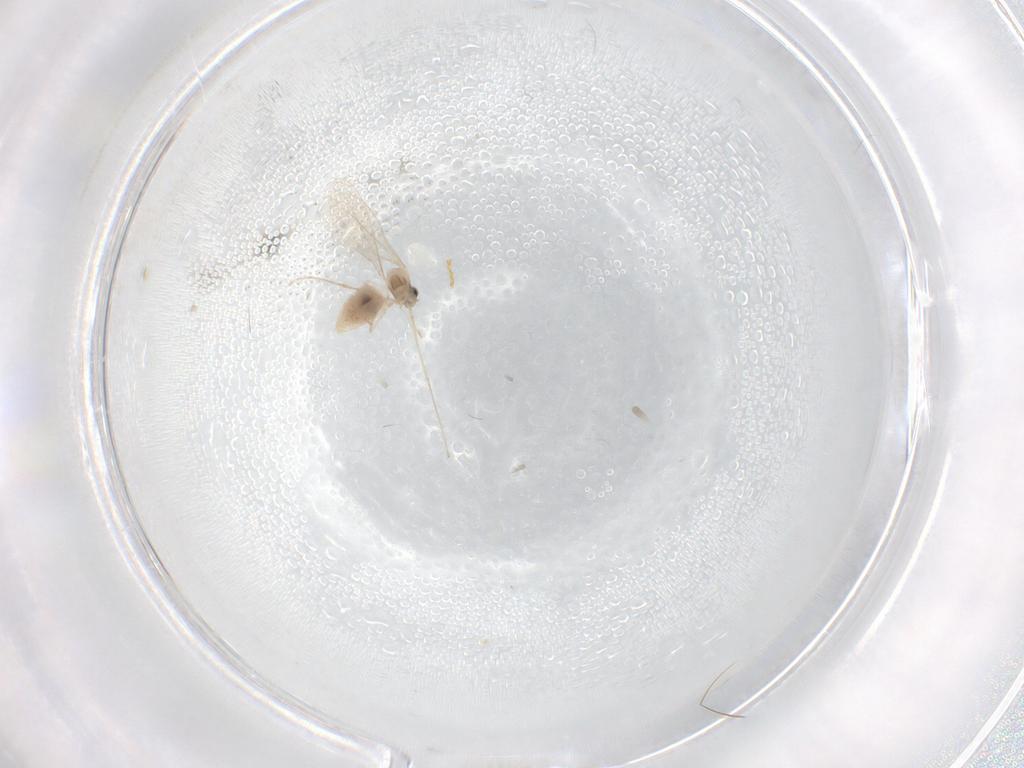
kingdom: Animalia
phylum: Arthropoda
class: Insecta
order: Diptera
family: Cecidomyiidae
